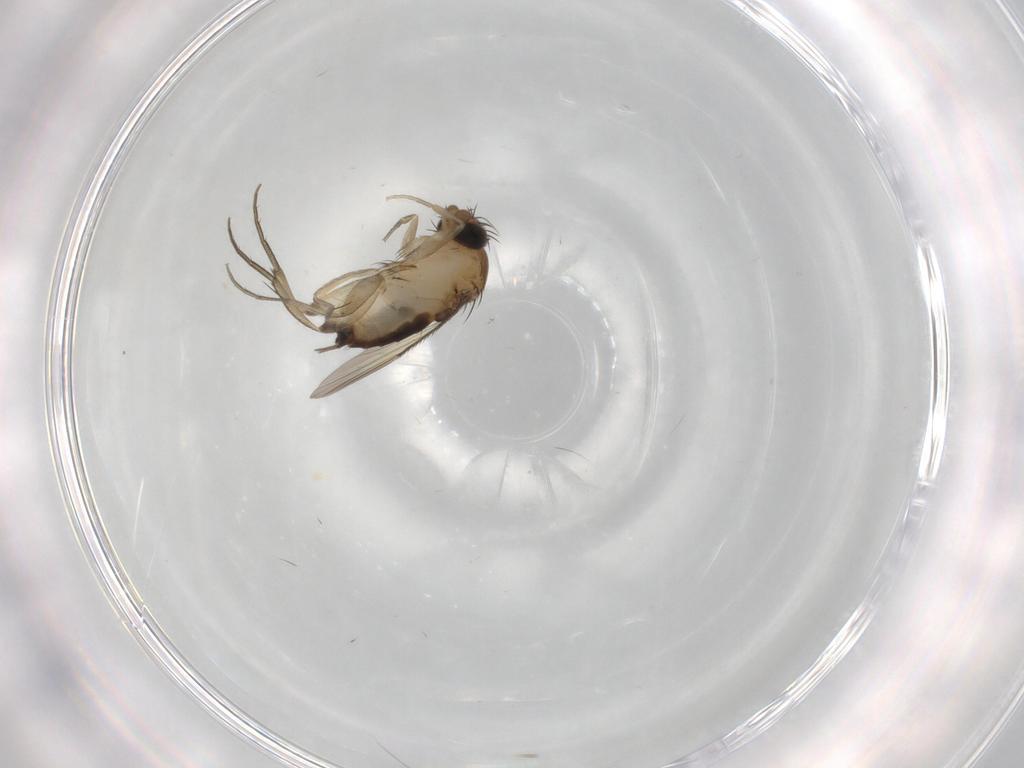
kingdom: Animalia
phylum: Arthropoda
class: Insecta
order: Diptera
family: Phoridae
